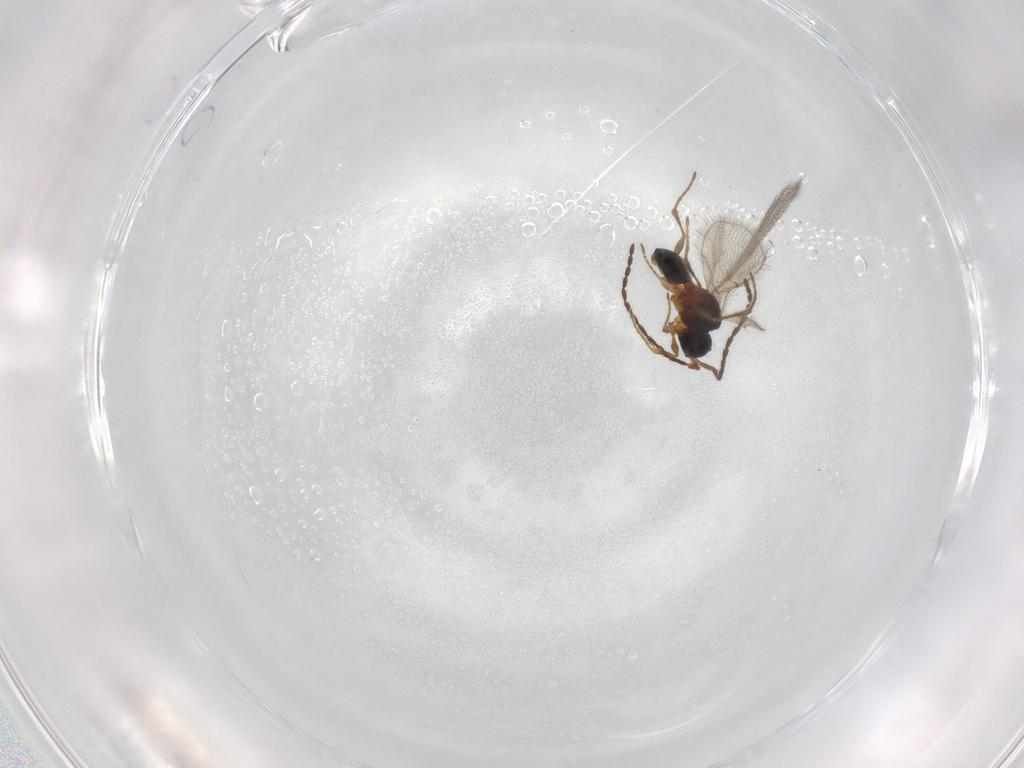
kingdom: Animalia
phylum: Arthropoda
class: Insecta
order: Hymenoptera
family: Diapriidae
